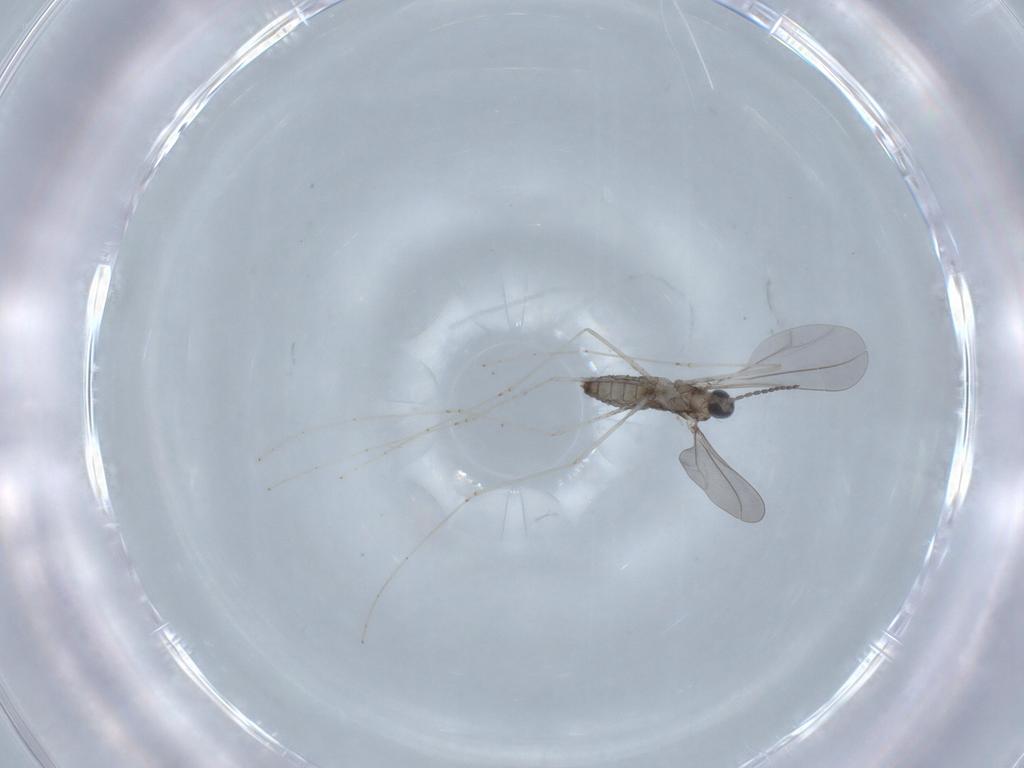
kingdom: Animalia
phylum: Arthropoda
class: Insecta
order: Diptera
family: Cecidomyiidae
